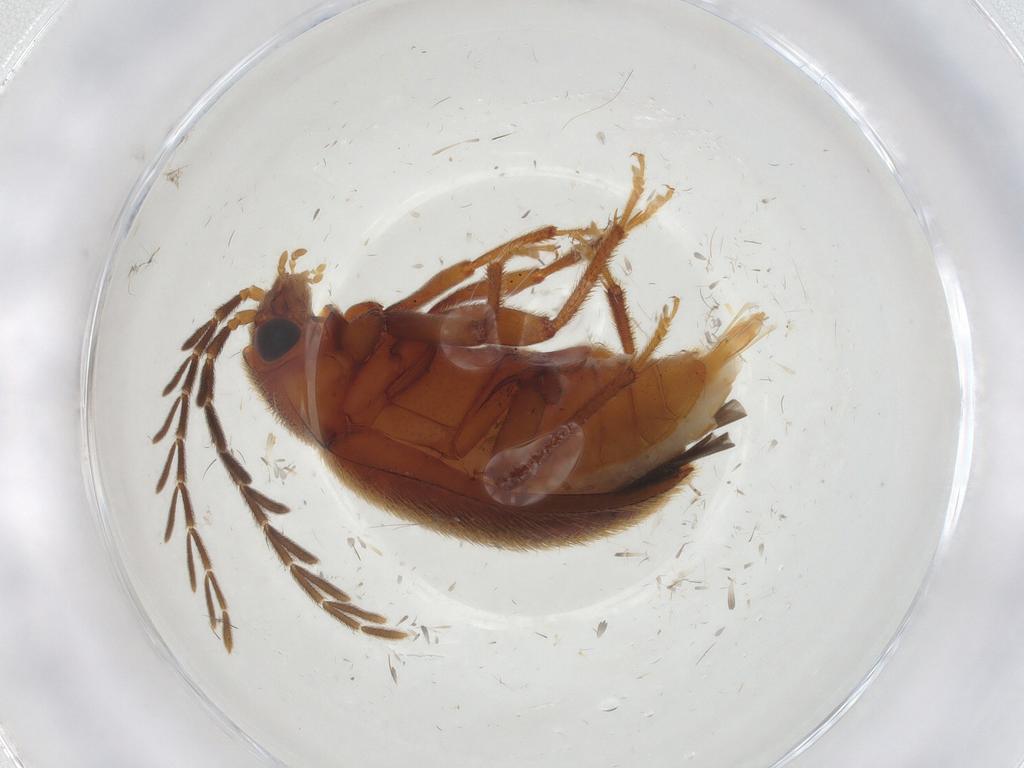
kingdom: Animalia
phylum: Arthropoda
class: Insecta
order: Coleoptera
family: Ptilodactylidae
